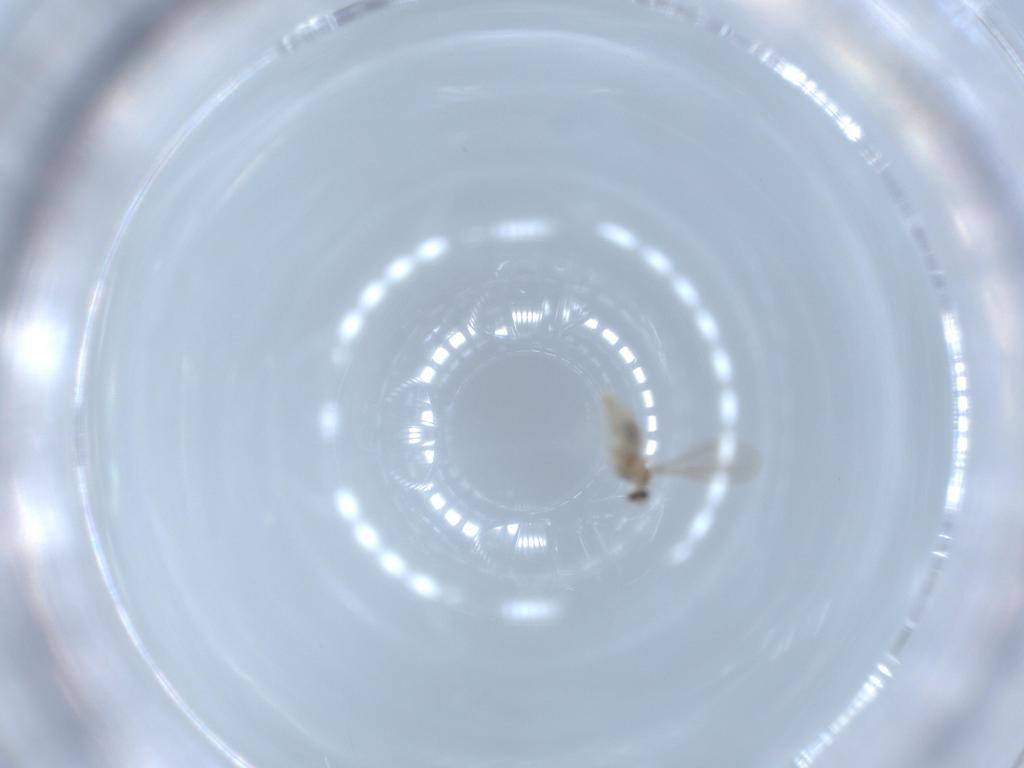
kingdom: Animalia
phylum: Arthropoda
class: Insecta
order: Diptera
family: Cecidomyiidae
